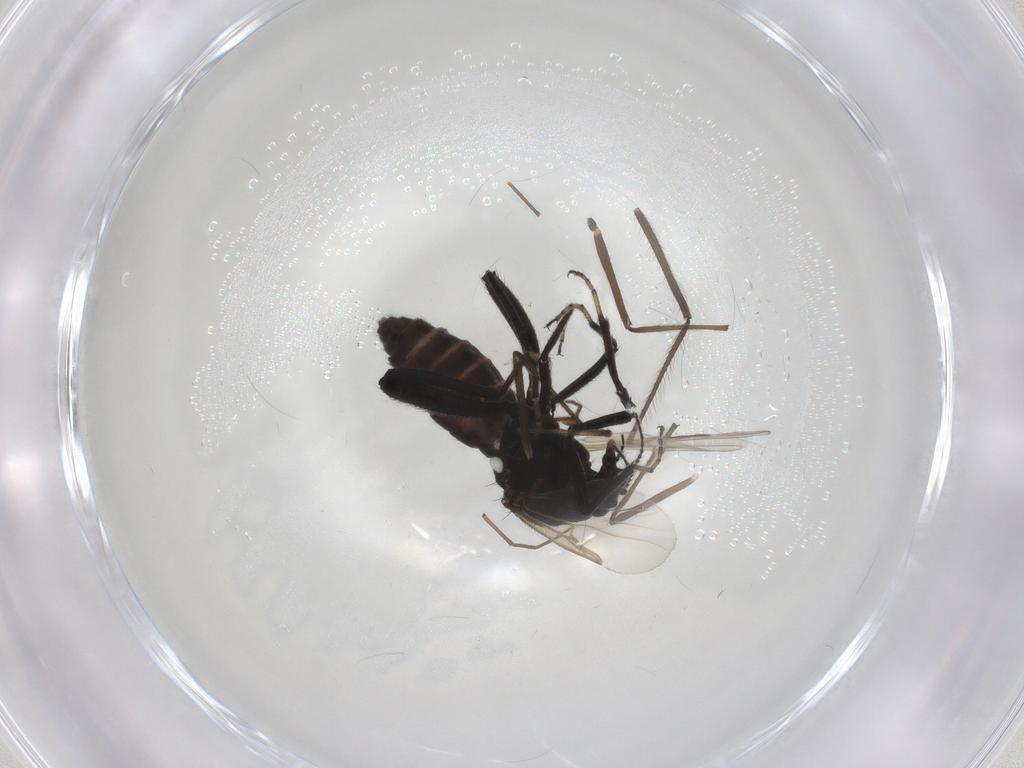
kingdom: Animalia
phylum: Arthropoda
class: Insecta
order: Diptera
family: Ceratopogonidae
